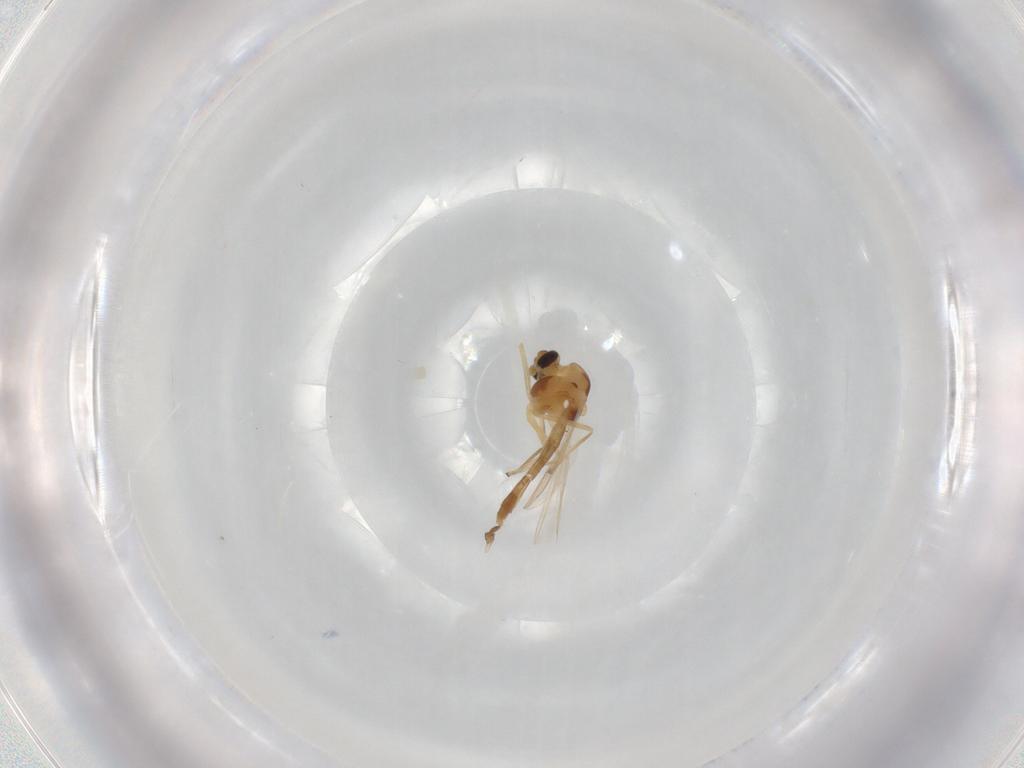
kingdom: Animalia
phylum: Arthropoda
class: Insecta
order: Diptera
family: Chironomidae
